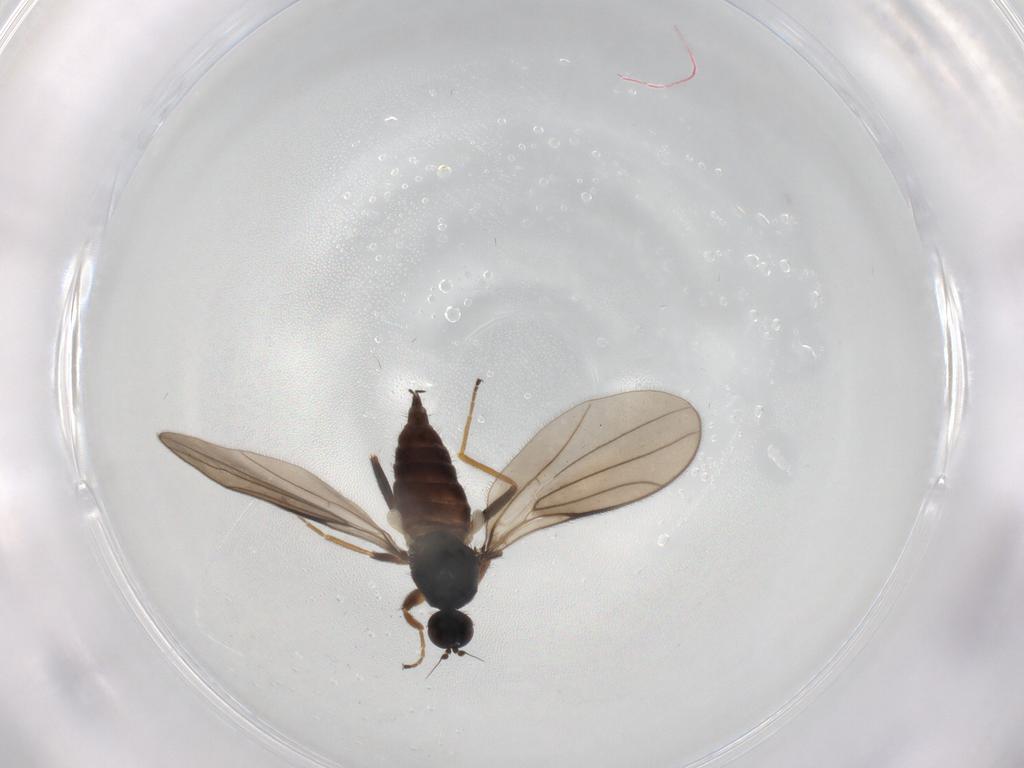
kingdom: Animalia
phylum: Arthropoda
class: Insecta
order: Diptera
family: Hybotidae
